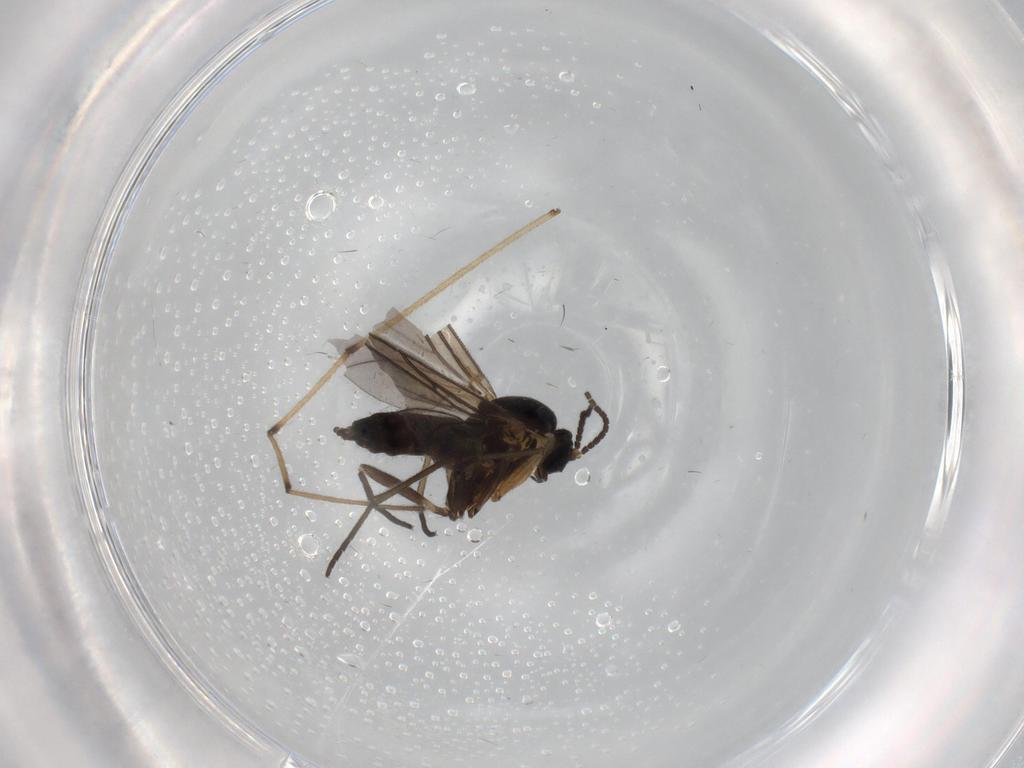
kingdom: Animalia
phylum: Arthropoda
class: Insecta
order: Diptera
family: Sciaridae
